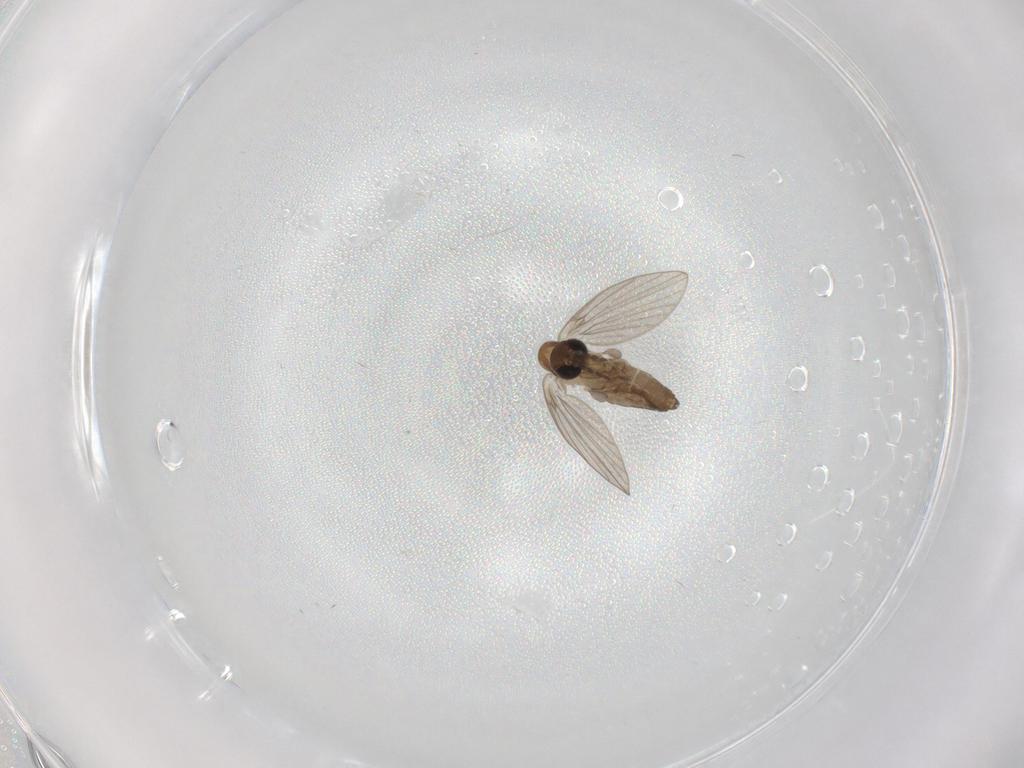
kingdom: Animalia
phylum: Arthropoda
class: Insecta
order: Diptera
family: Psychodidae
